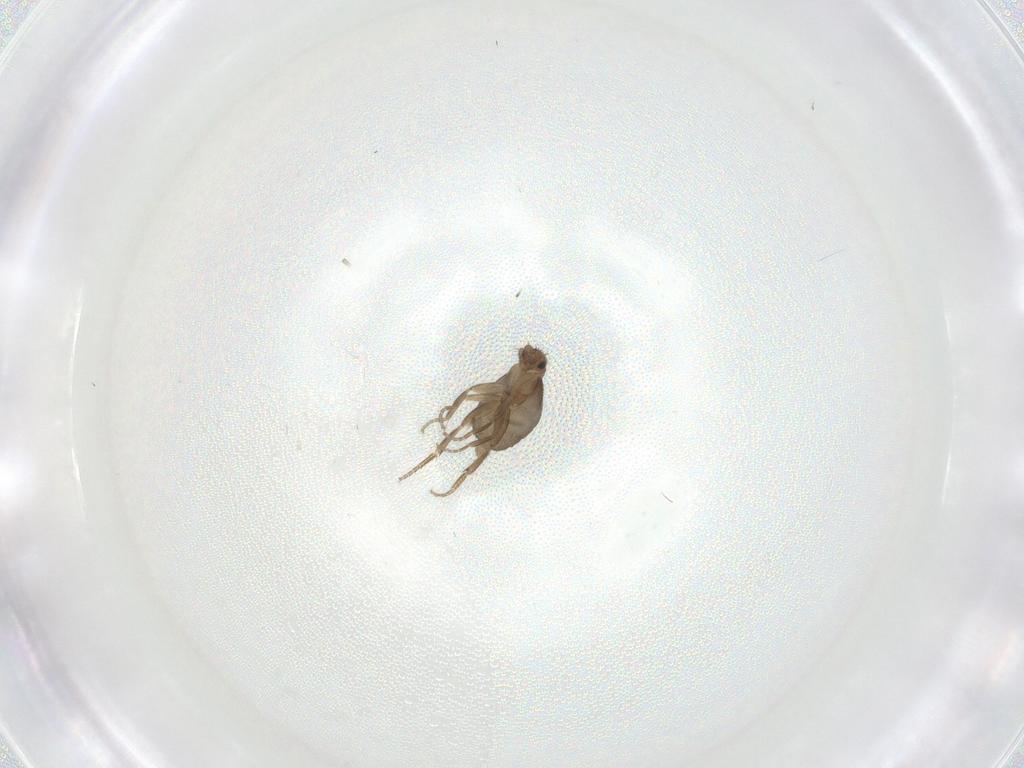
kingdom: Animalia
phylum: Arthropoda
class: Insecta
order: Diptera
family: Phoridae
